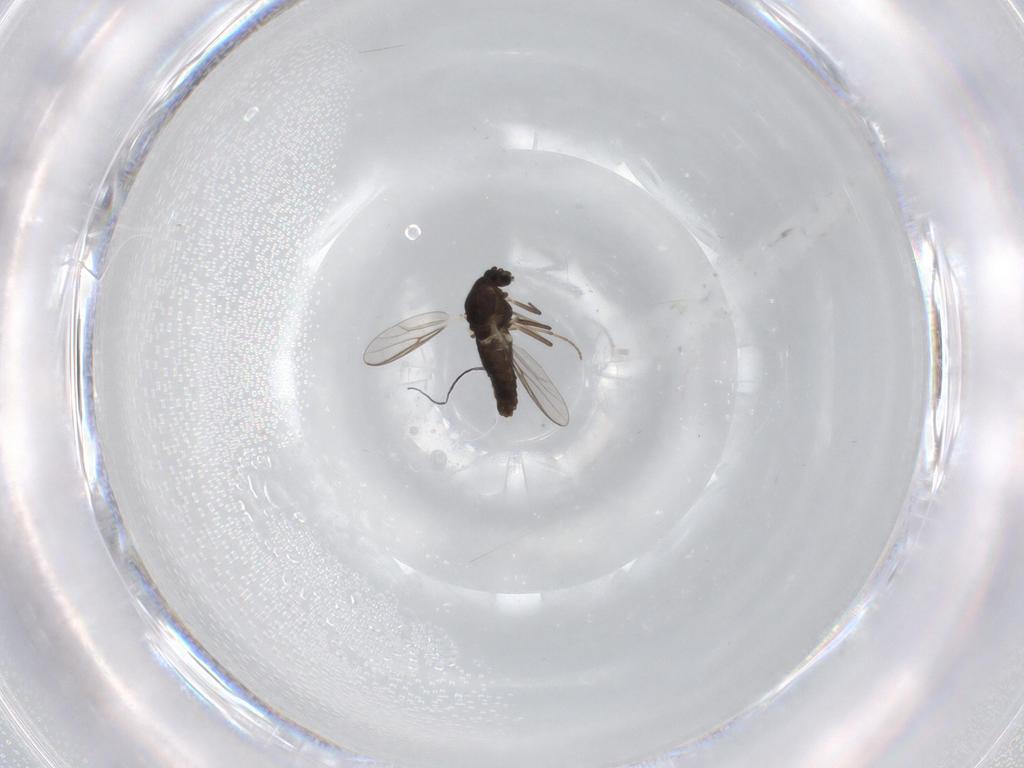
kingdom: Animalia
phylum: Arthropoda
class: Insecta
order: Diptera
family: Chironomidae
